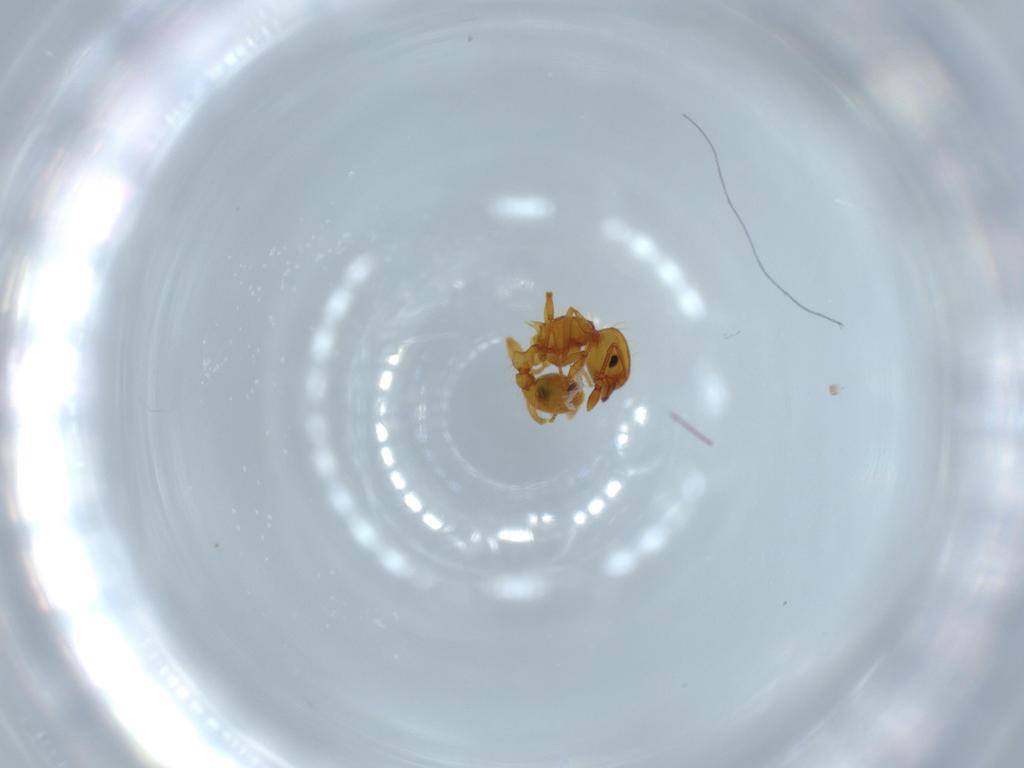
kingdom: Animalia
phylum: Arthropoda
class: Insecta
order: Hymenoptera
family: Formicidae
